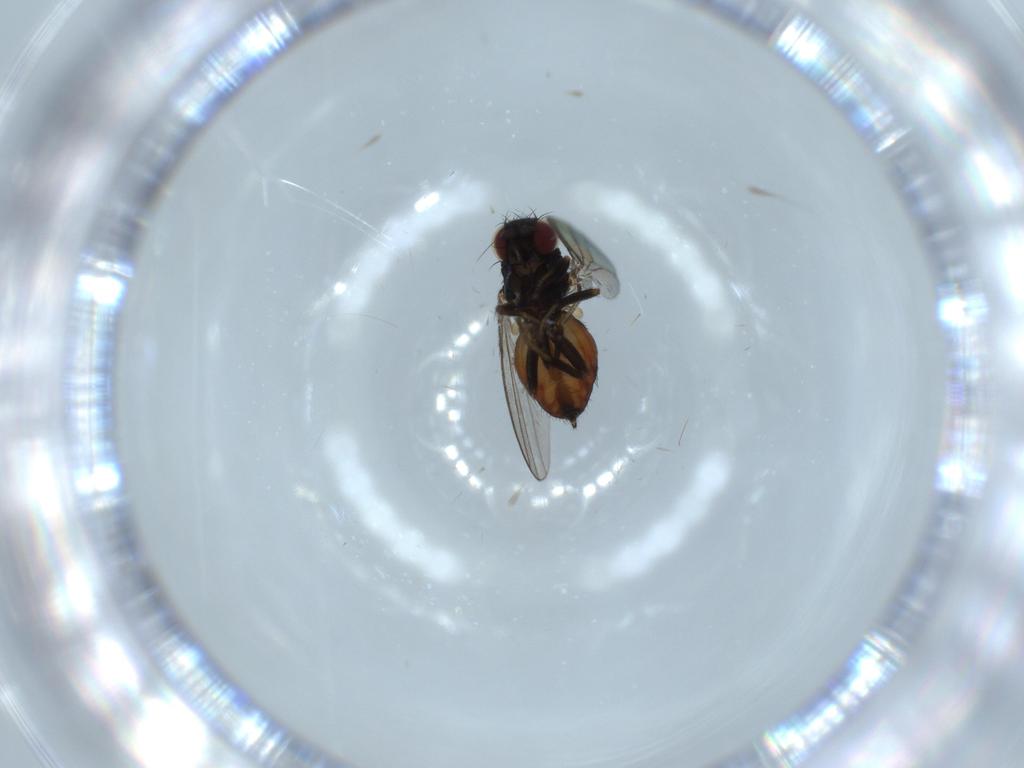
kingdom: Animalia
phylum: Arthropoda
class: Insecta
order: Diptera
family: Milichiidae
